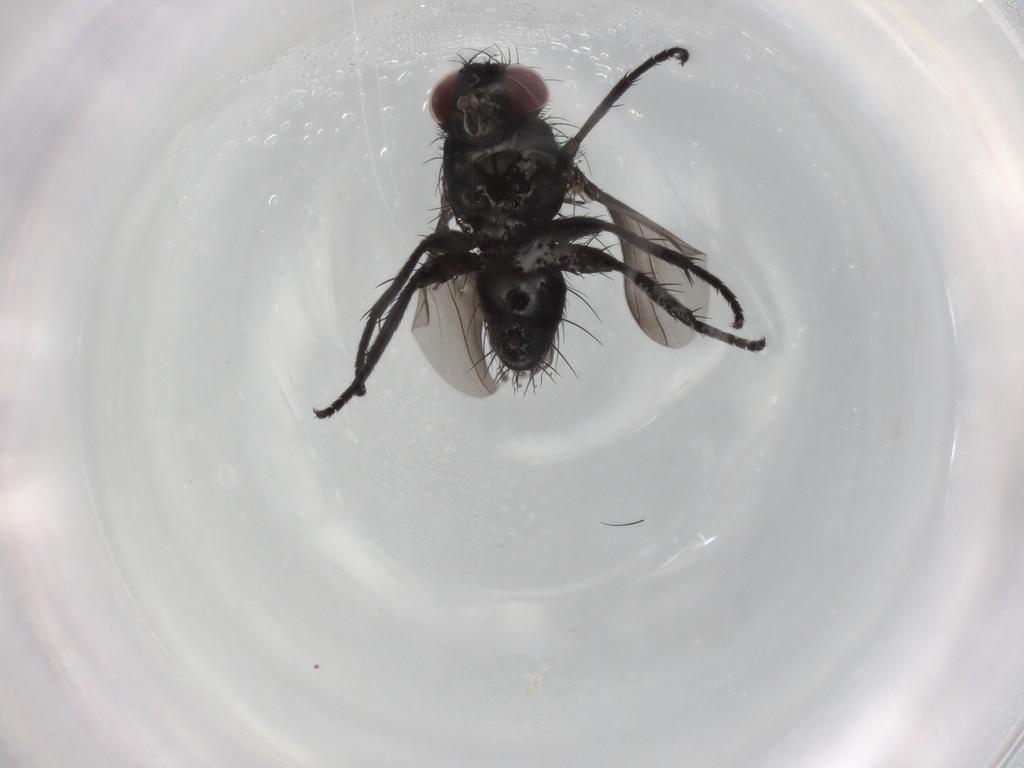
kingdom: Animalia
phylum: Arthropoda
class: Insecta
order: Diptera
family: Tachinidae
